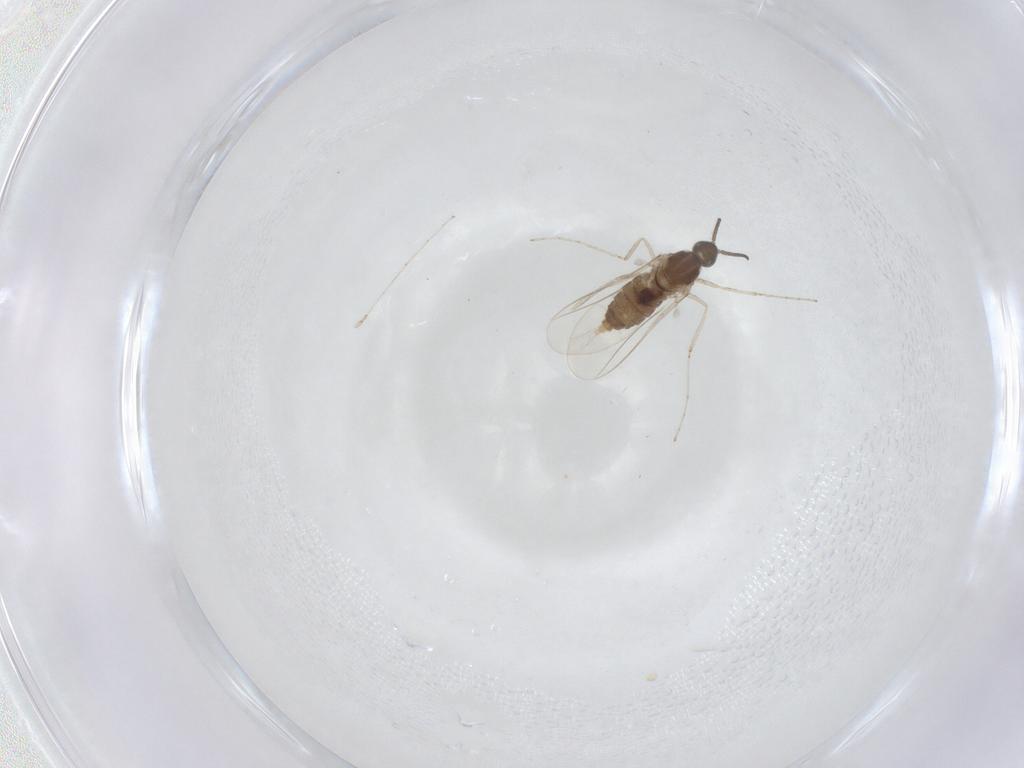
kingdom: Animalia
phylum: Arthropoda
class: Insecta
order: Diptera
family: Cecidomyiidae
